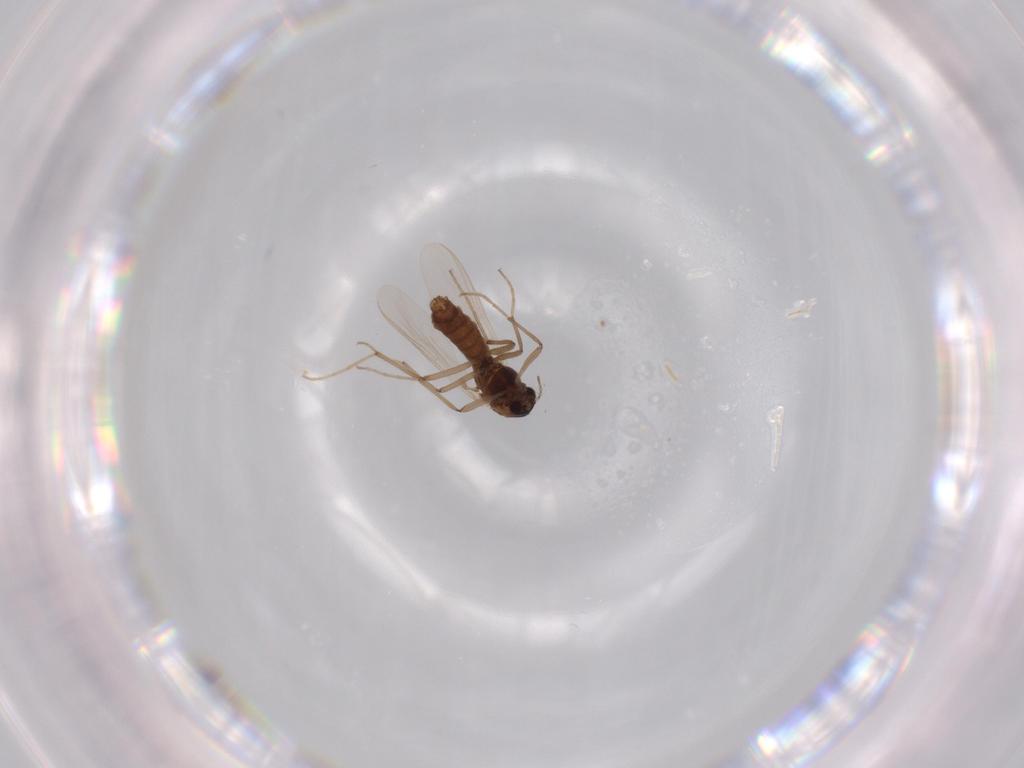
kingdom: Animalia
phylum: Arthropoda
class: Insecta
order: Diptera
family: Chironomidae
